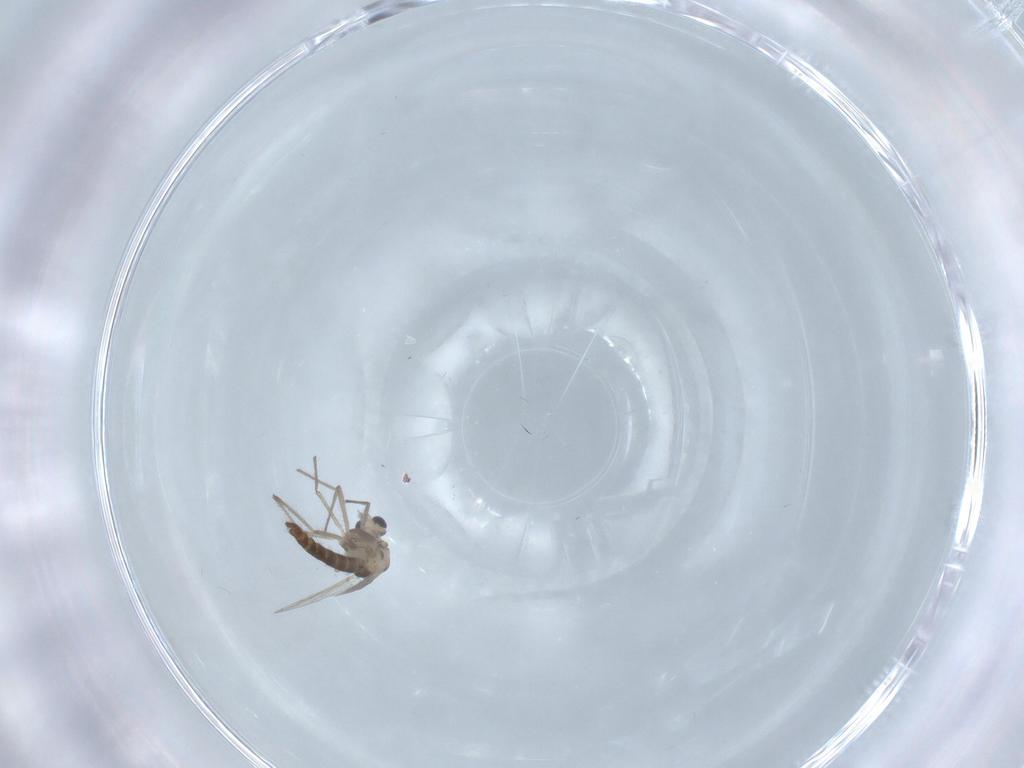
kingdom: Animalia
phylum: Arthropoda
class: Insecta
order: Diptera
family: Chironomidae
